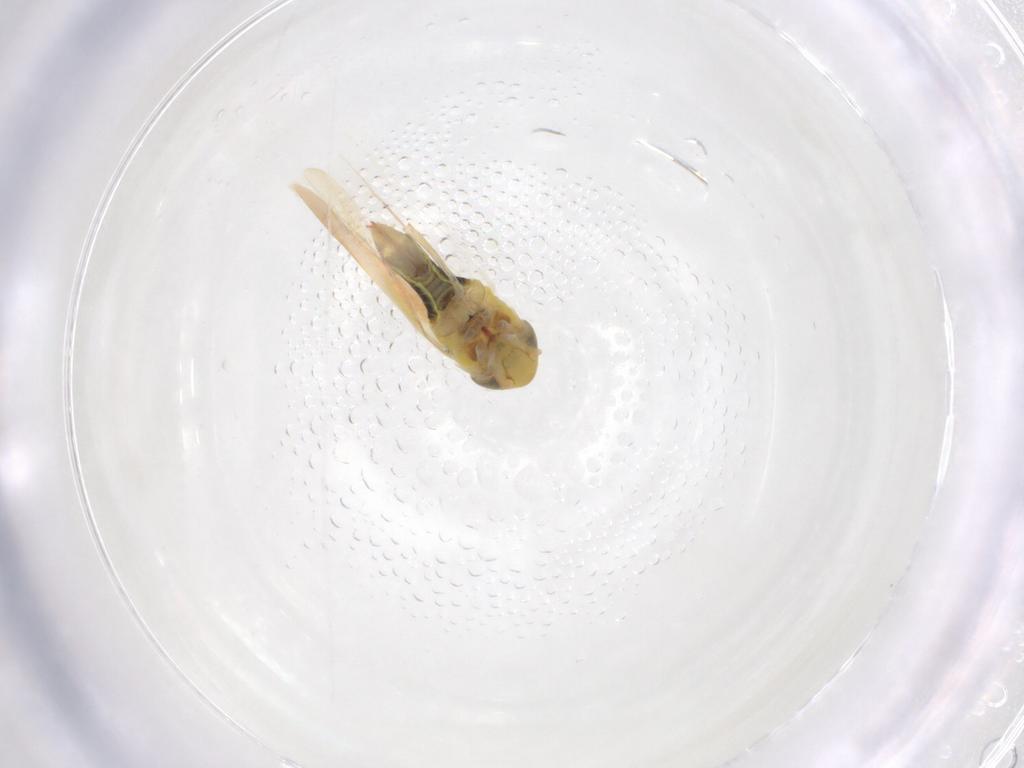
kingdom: Animalia
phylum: Arthropoda
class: Insecta
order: Hemiptera
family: Cicadellidae
